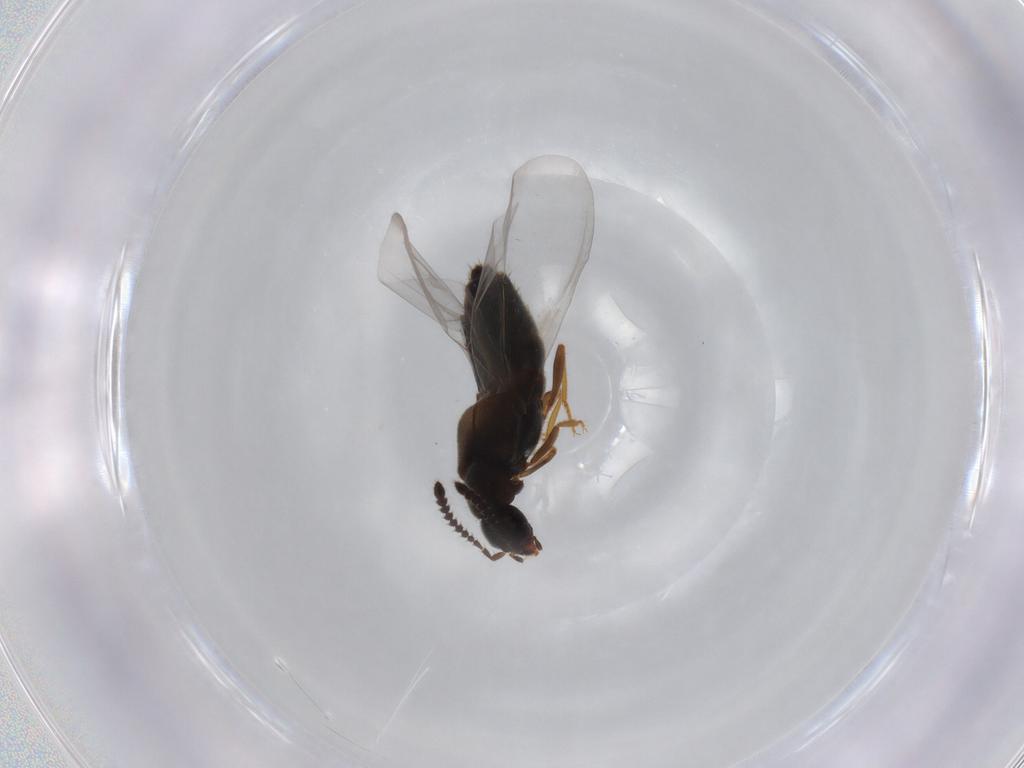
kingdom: Animalia
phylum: Arthropoda
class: Insecta
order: Coleoptera
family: Staphylinidae
